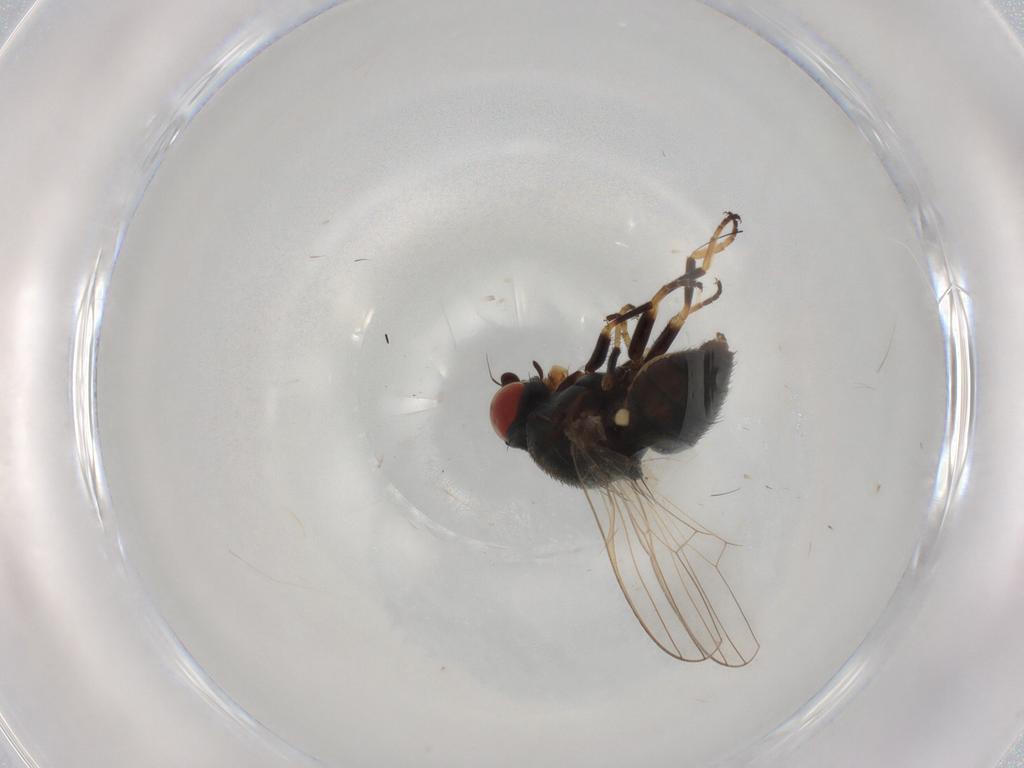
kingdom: Animalia
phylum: Arthropoda
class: Insecta
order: Diptera
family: Chamaemyiidae
